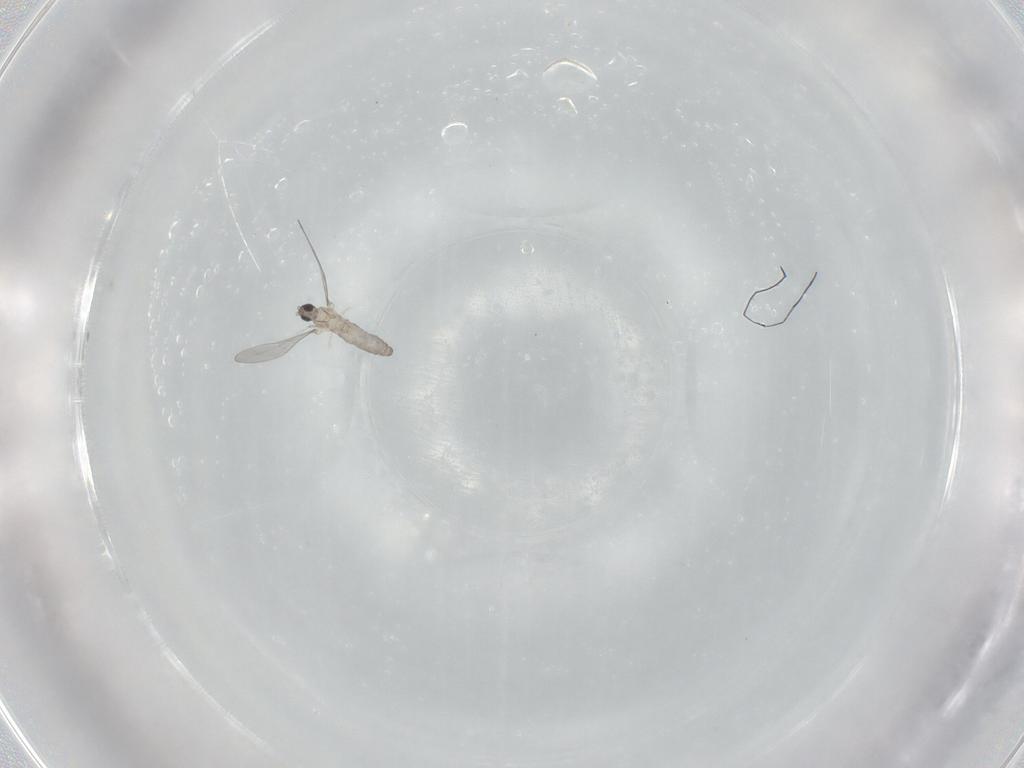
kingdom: Animalia
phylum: Arthropoda
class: Insecta
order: Diptera
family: Cecidomyiidae
